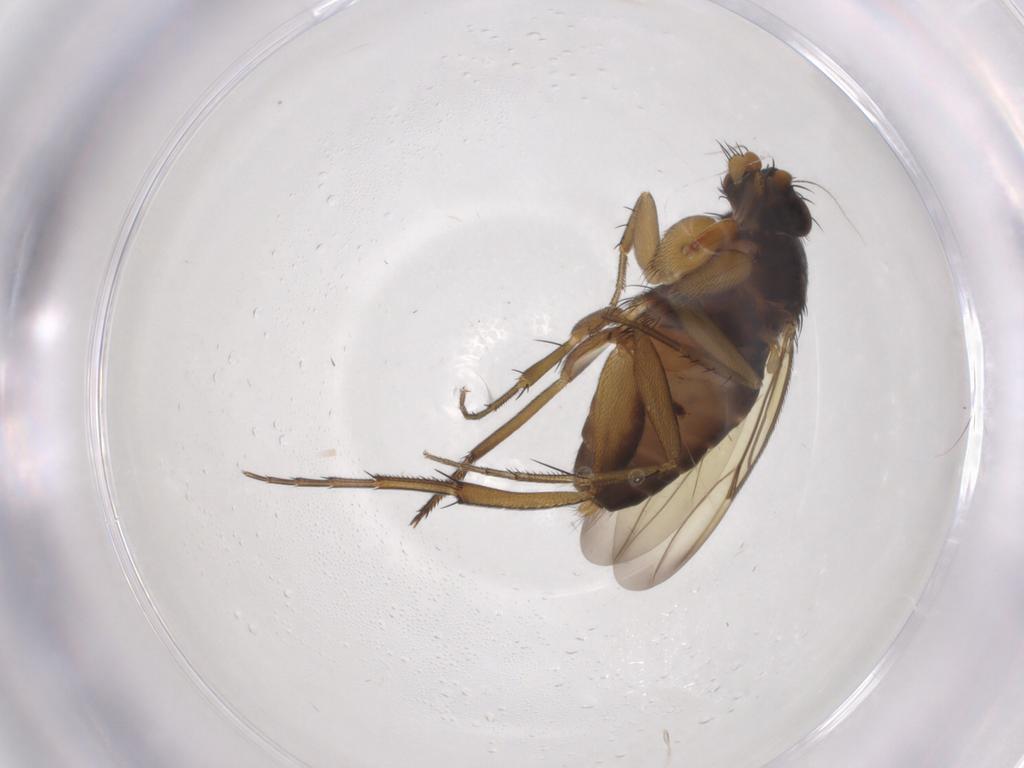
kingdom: Animalia
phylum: Arthropoda
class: Insecta
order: Diptera
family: Phoridae
